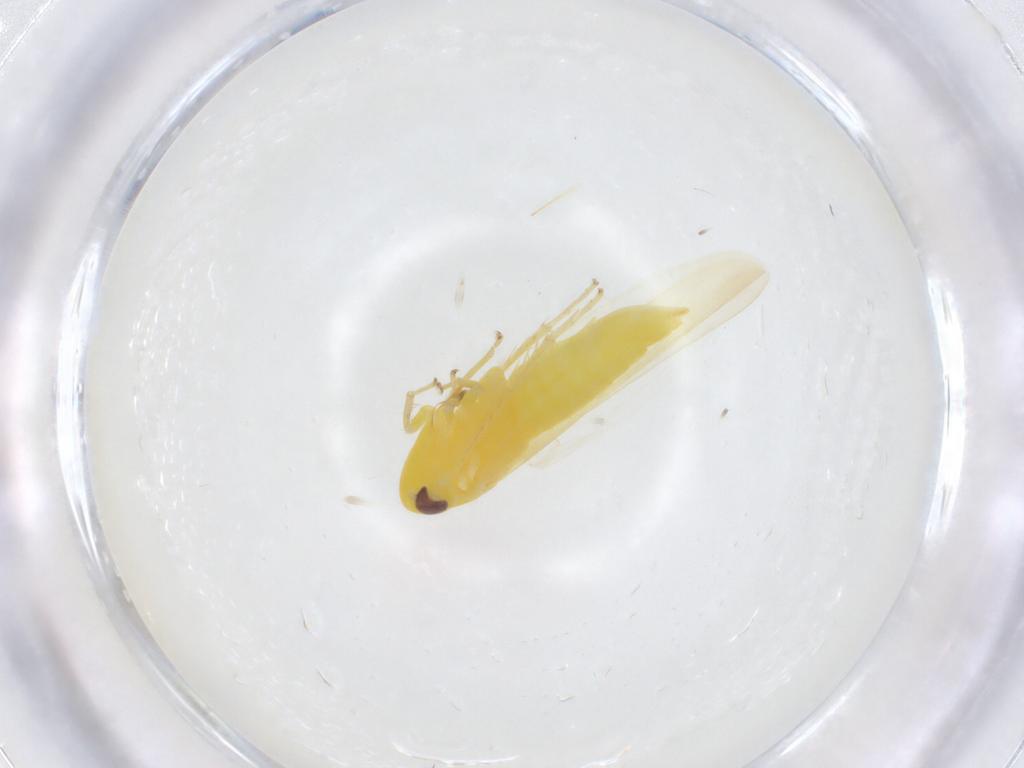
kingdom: Animalia
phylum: Arthropoda
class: Insecta
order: Hemiptera
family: Cicadellidae
